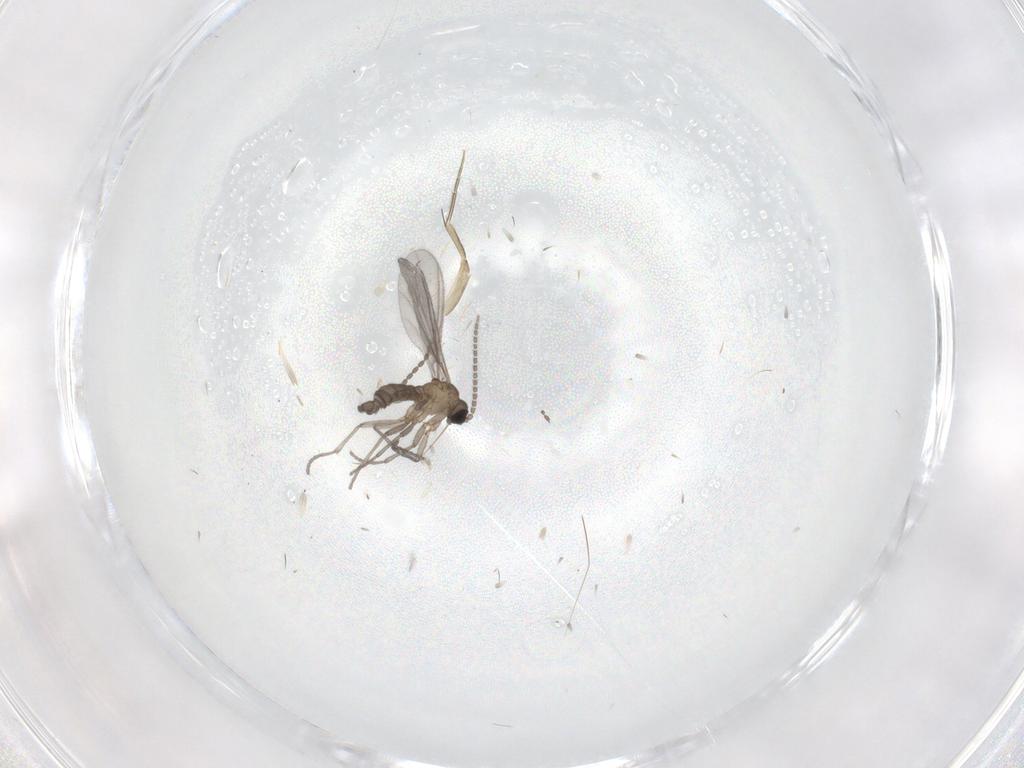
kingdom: Animalia
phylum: Arthropoda
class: Insecta
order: Diptera
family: Sciaridae
